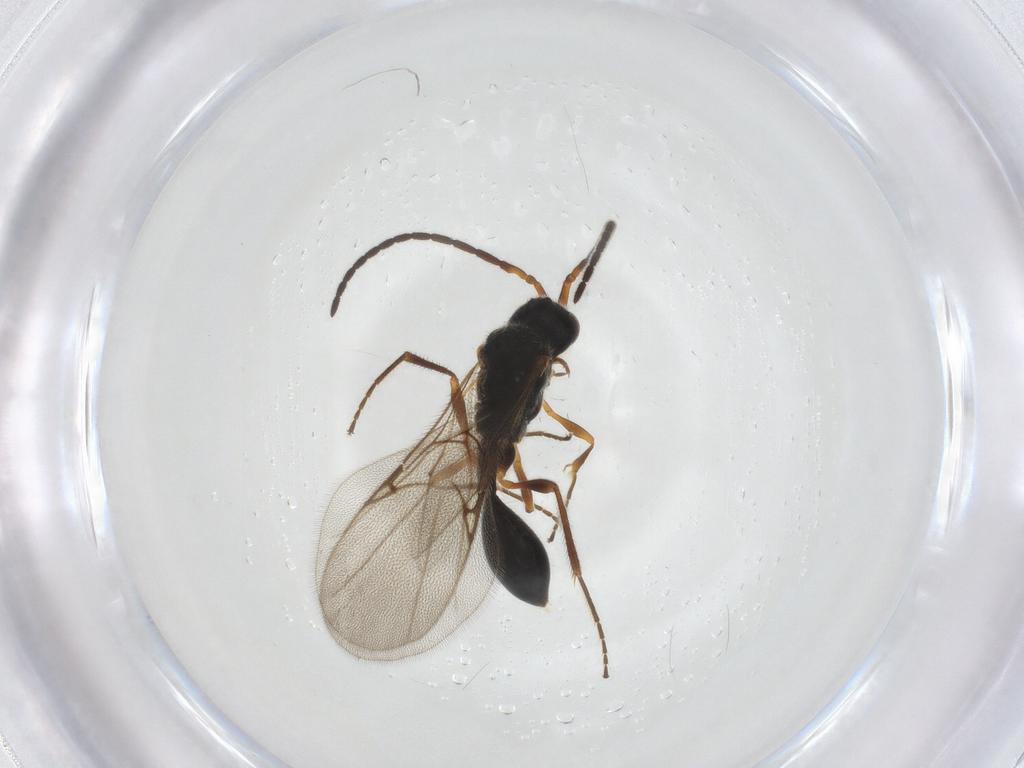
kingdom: Animalia
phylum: Arthropoda
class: Insecta
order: Hymenoptera
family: Diapriidae
